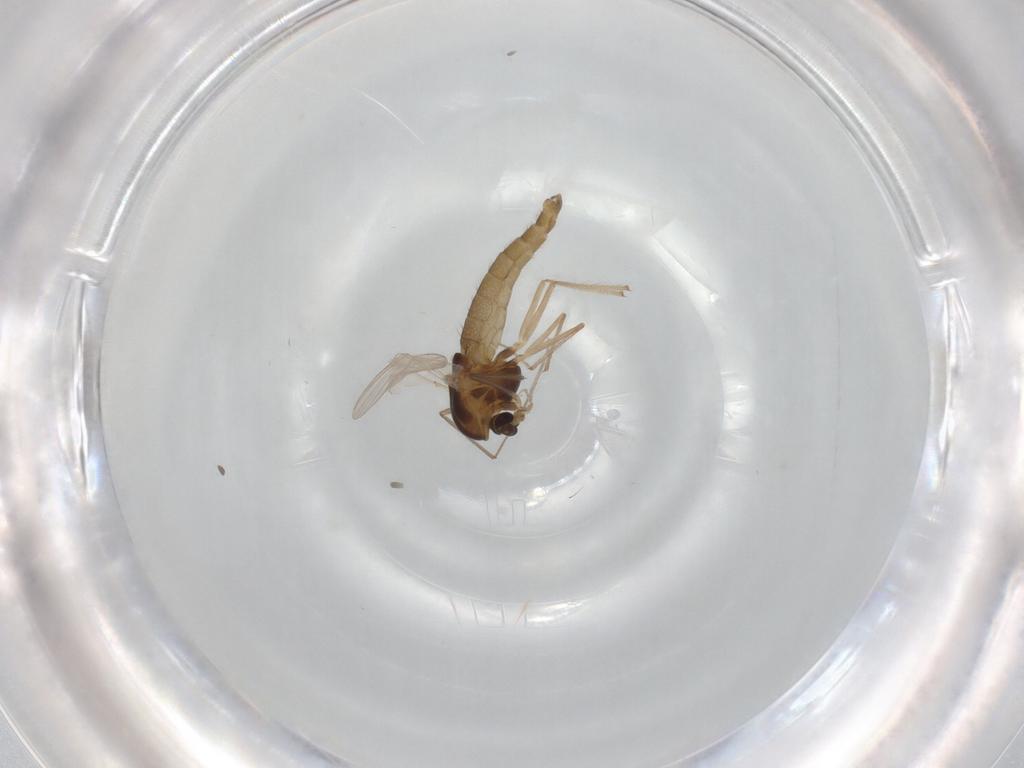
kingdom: Animalia
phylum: Arthropoda
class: Insecta
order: Diptera
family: Chironomidae
